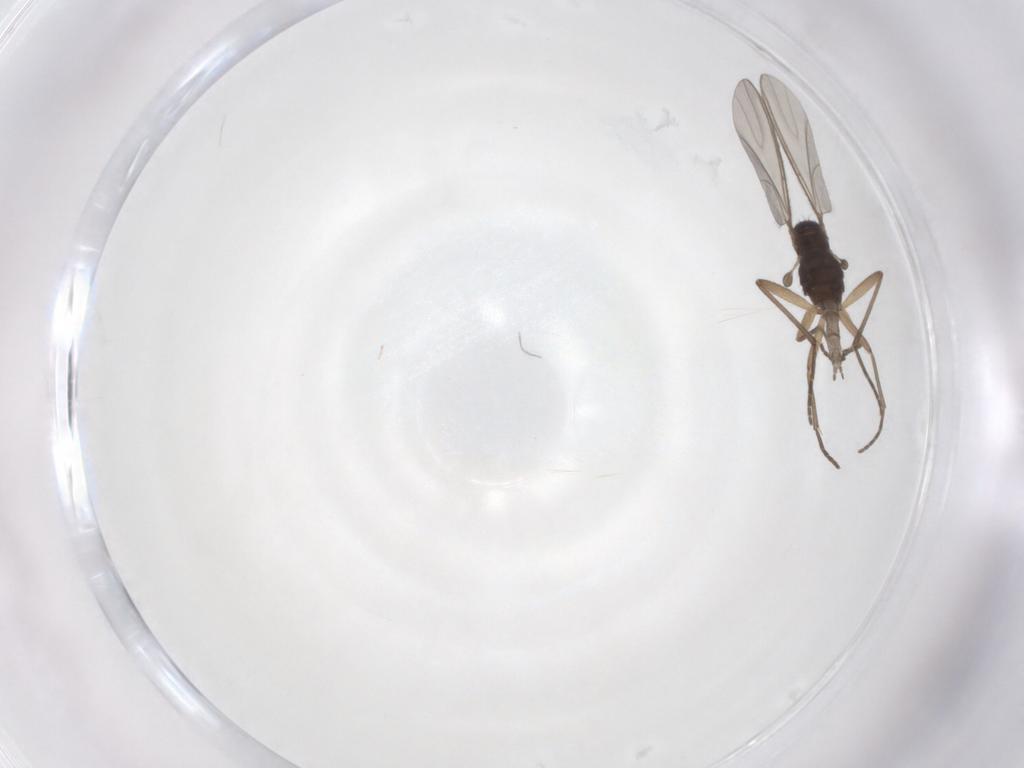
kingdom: Animalia
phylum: Arthropoda
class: Insecta
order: Diptera
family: Sciaridae
